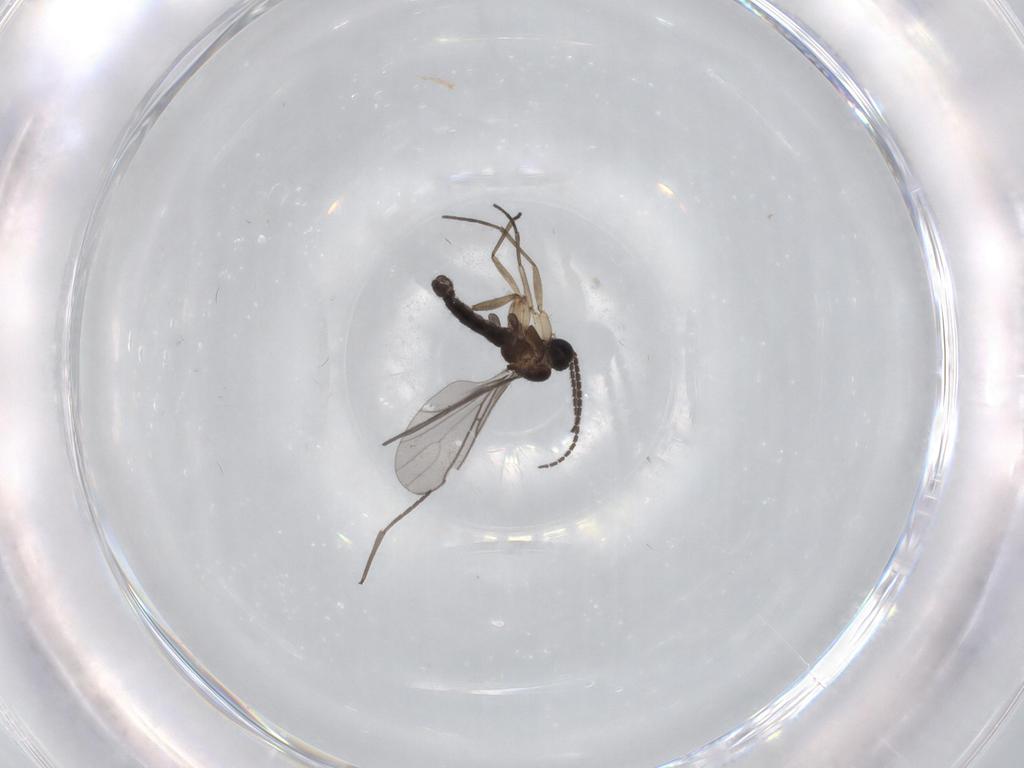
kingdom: Animalia
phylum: Arthropoda
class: Insecta
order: Diptera
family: Sciaridae
